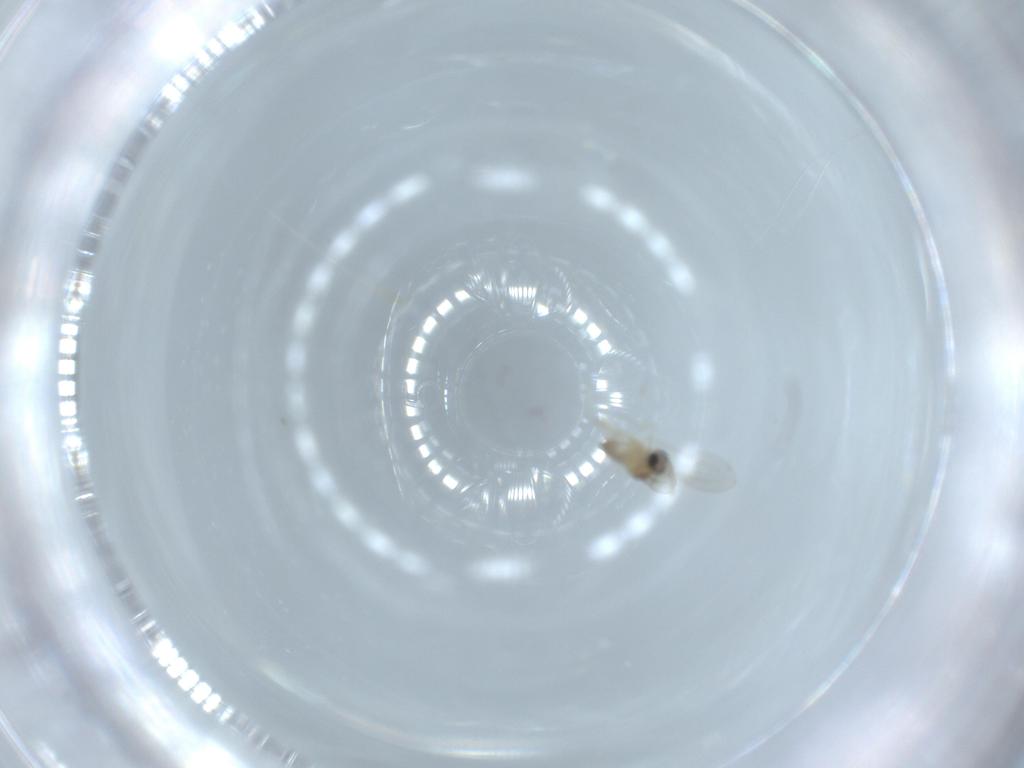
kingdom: Animalia
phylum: Arthropoda
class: Insecta
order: Diptera
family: Cecidomyiidae
